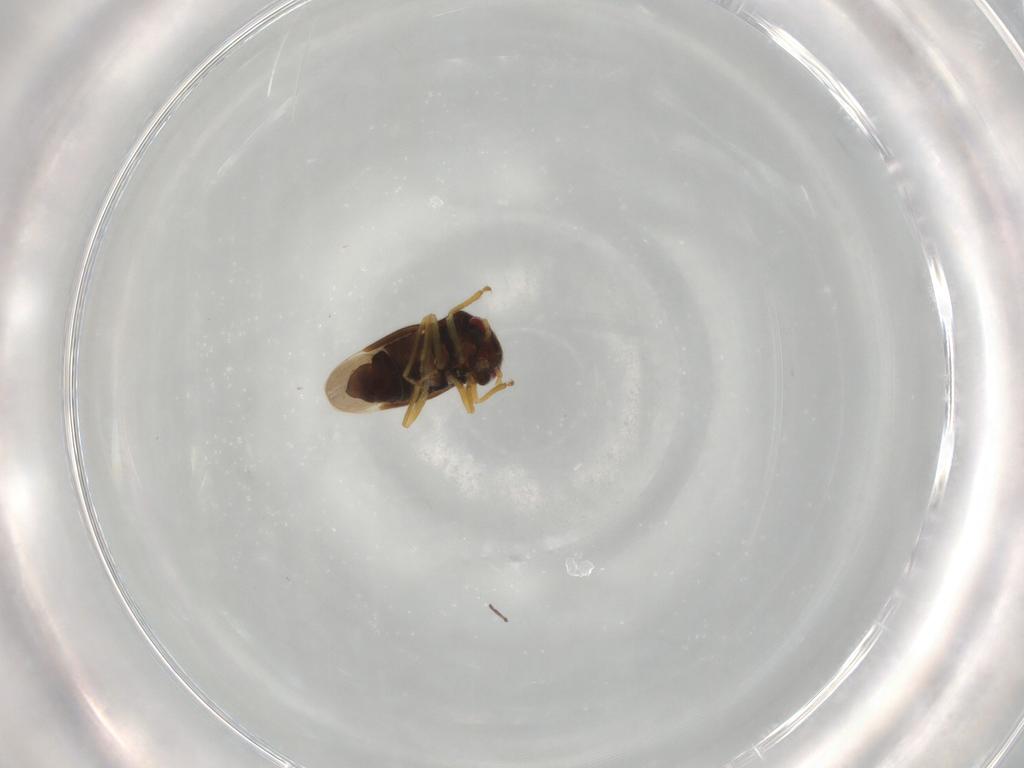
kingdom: Animalia
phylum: Arthropoda
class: Insecta
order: Hemiptera
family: Schizopteridae
